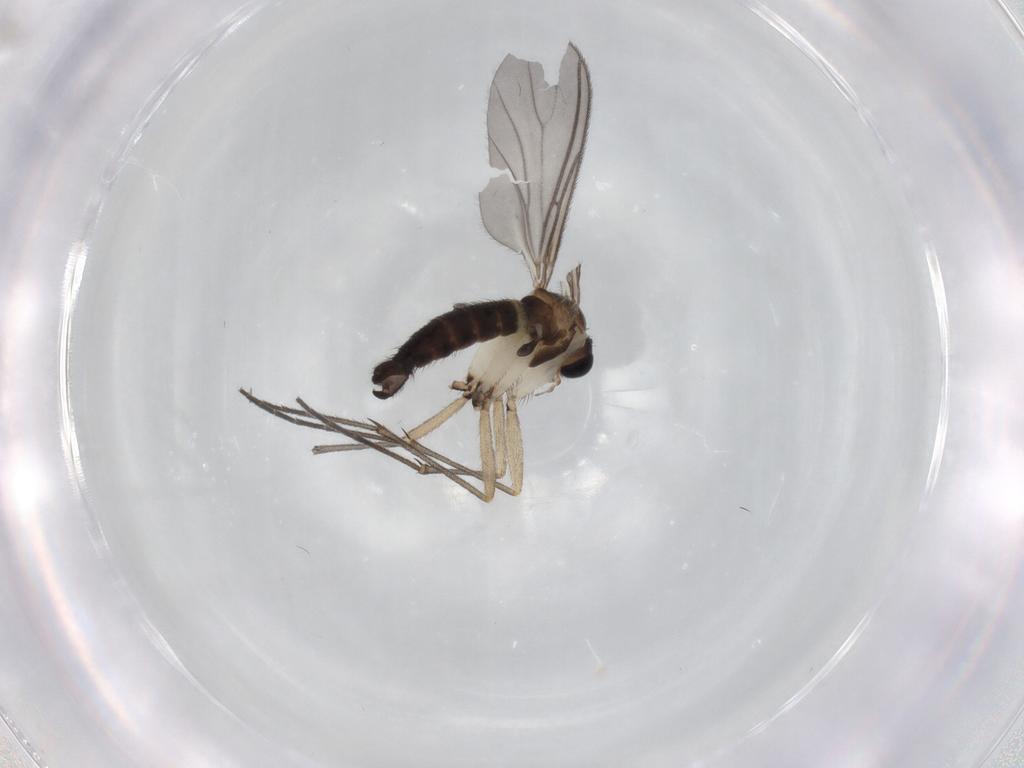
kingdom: Animalia
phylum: Arthropoda
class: Insecta
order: Diptera
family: Sciaridae
